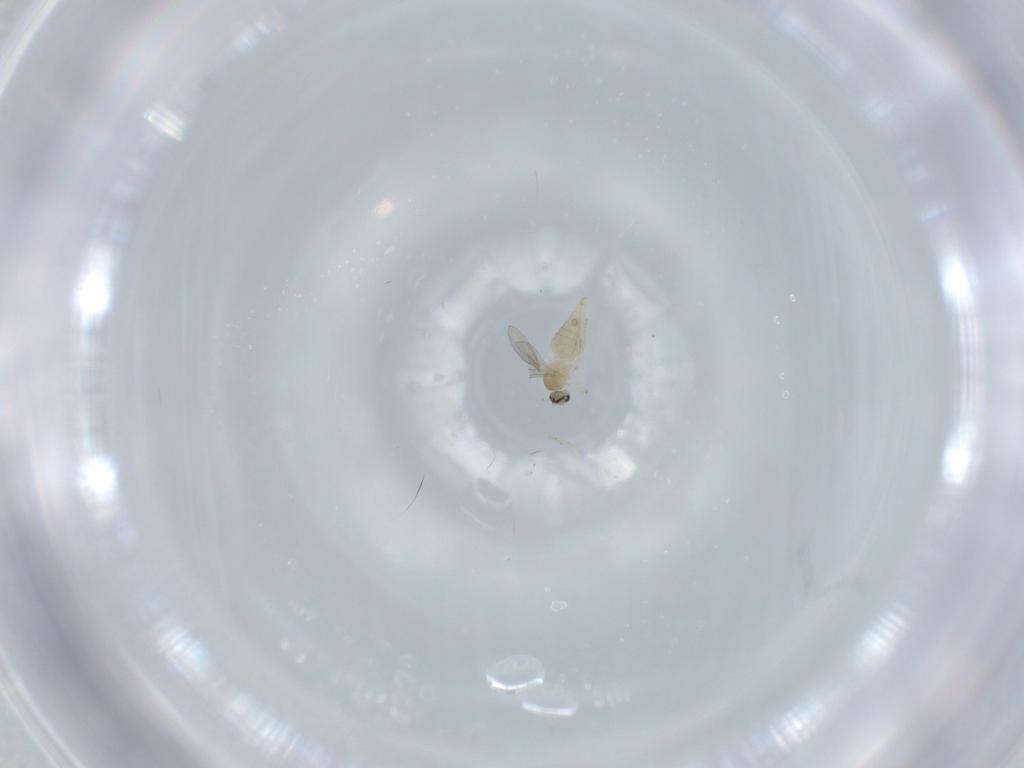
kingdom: Animalia
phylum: Arthropoda
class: Insecta
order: Diptera
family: Cecidomyiidae
